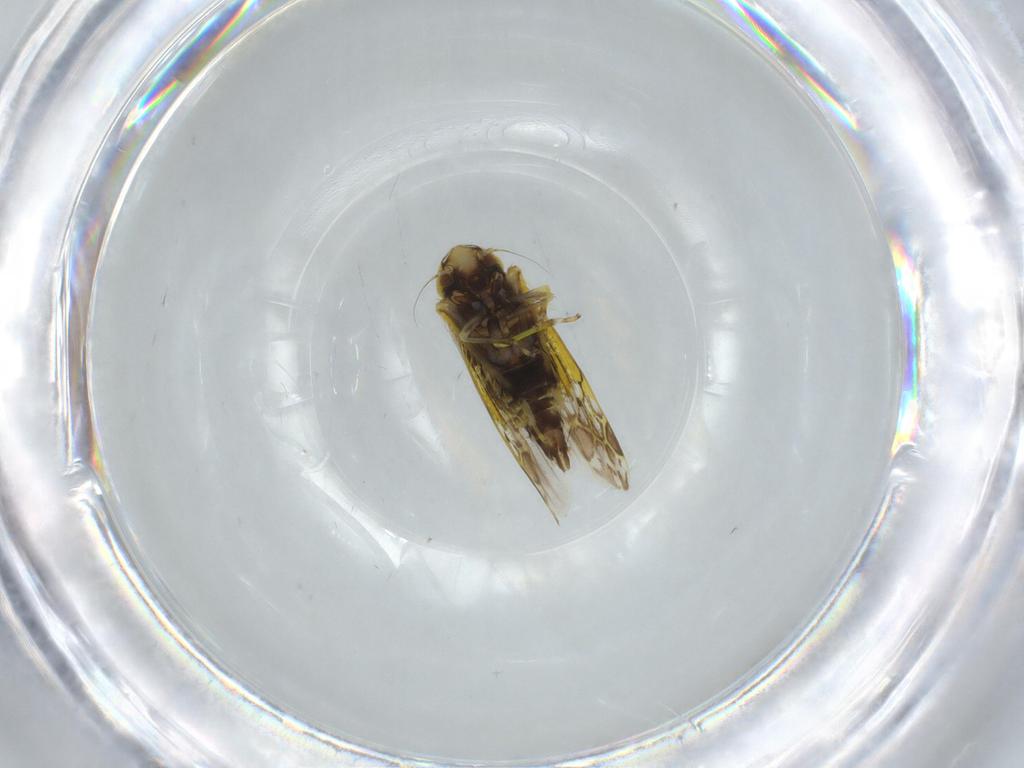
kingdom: Animalia
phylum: Arthropoda
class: Insecta
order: Hemiptera
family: Cicadellidae
